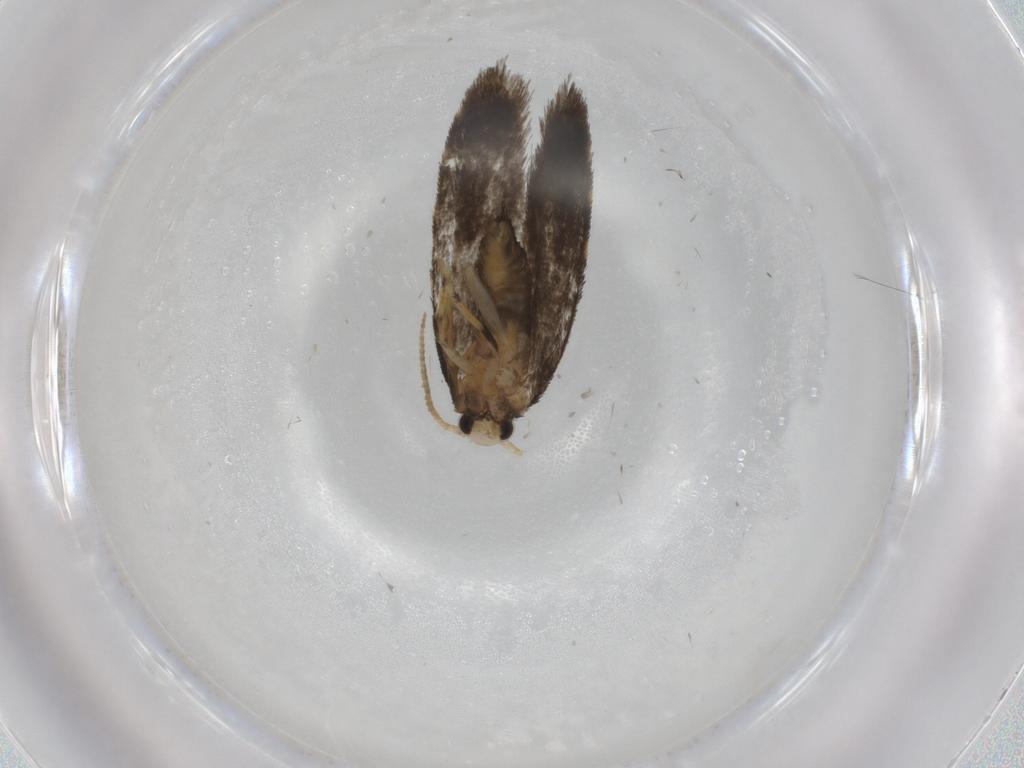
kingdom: Animalia
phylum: Arthropoda
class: Insecta
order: Lepidoptera
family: Psychidae
